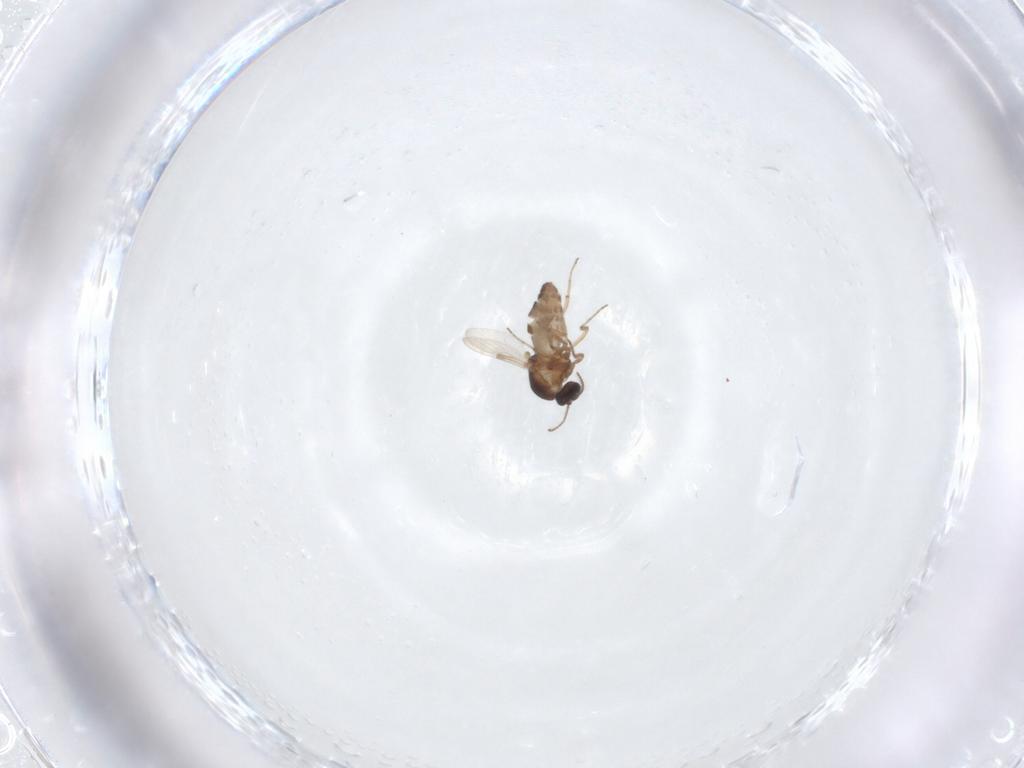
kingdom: Animalia
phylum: Arthropoda
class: Insecta
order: Diptera
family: Ceratopogonidae
